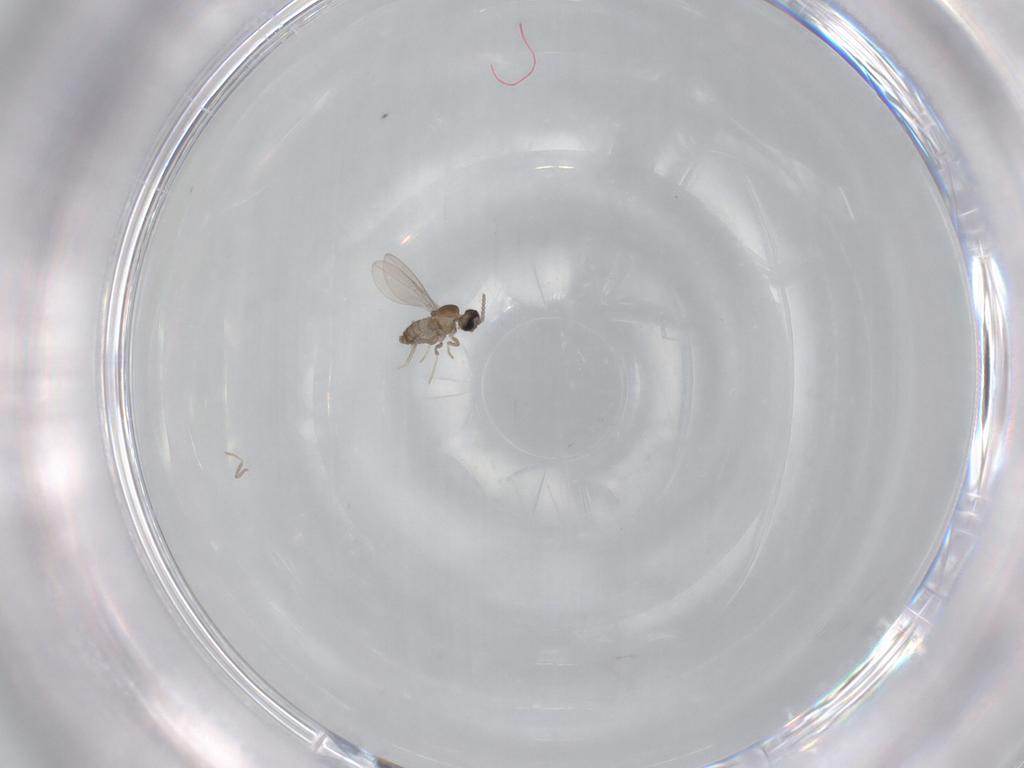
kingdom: Animalia
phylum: Arthropoda
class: Insecta
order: Diptera
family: Cecidomyiidae
